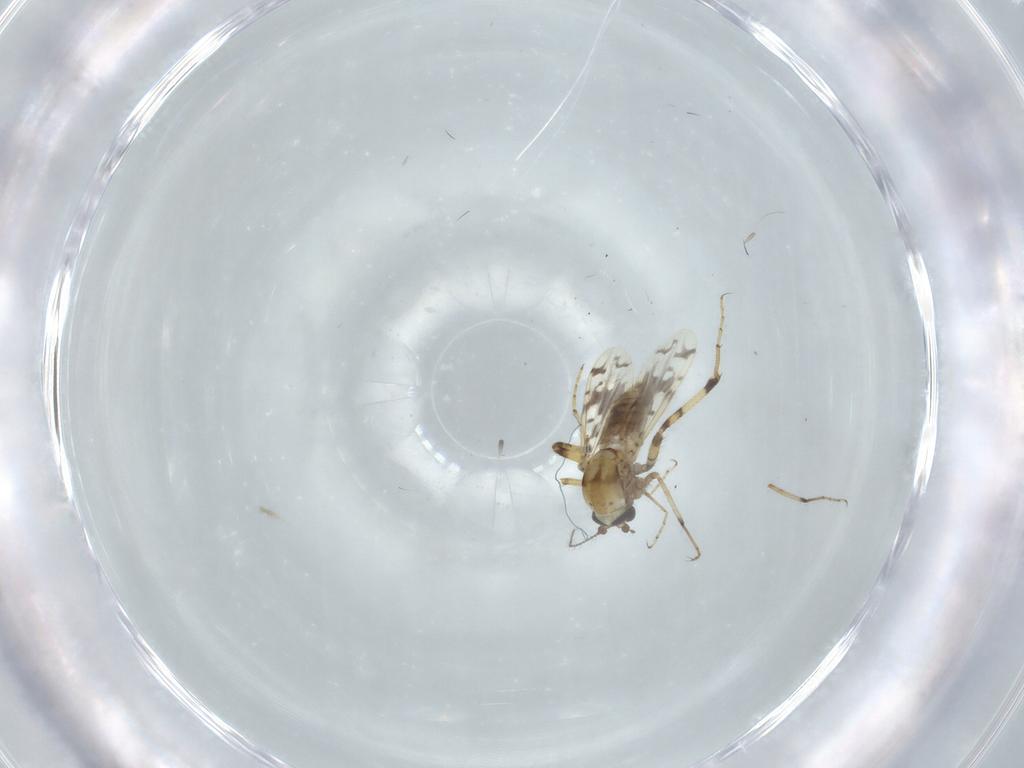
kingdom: Animalia
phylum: Arthropoda
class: Insecta
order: Diptera
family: Ceratopogonidae
